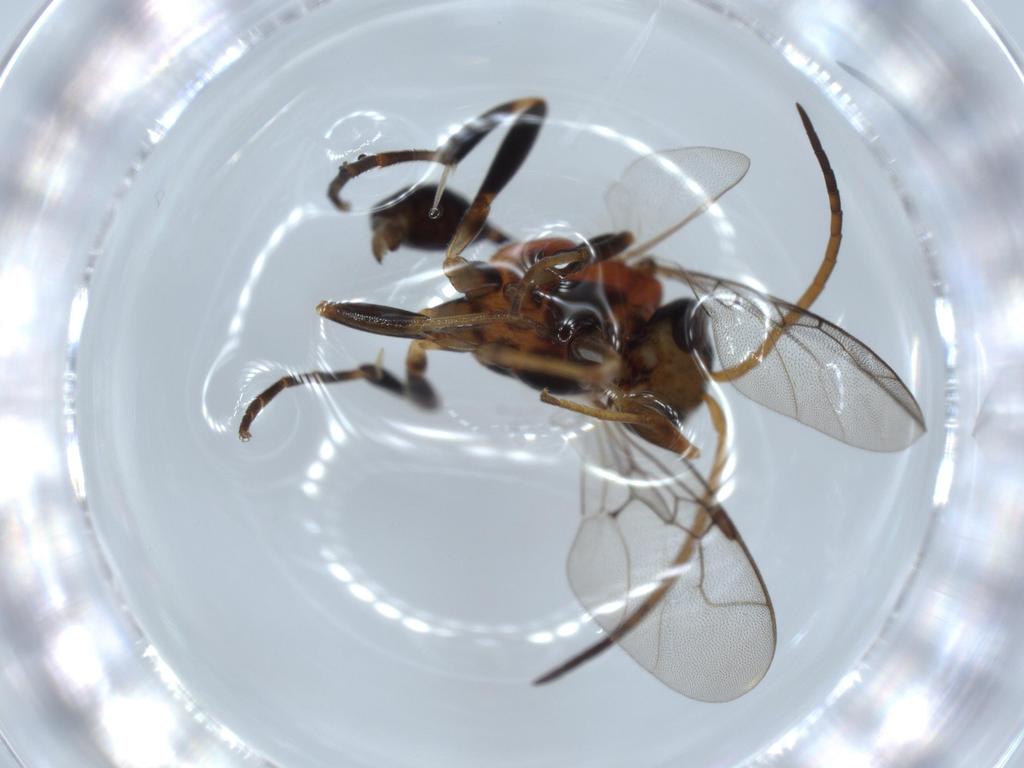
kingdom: Animalia
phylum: Arthropoda
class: Insecta
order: Hymenoptera
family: Evaniidae
